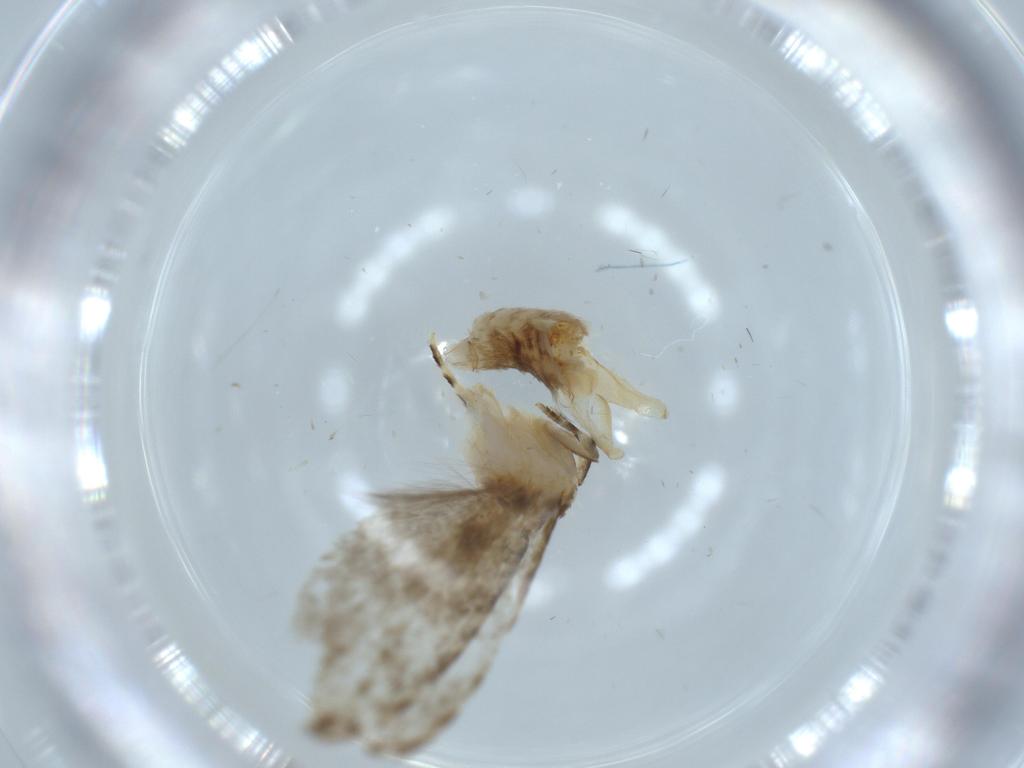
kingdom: Animalia
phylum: Arthropoda
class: Insecta
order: Lepidoptera
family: Tineidae
